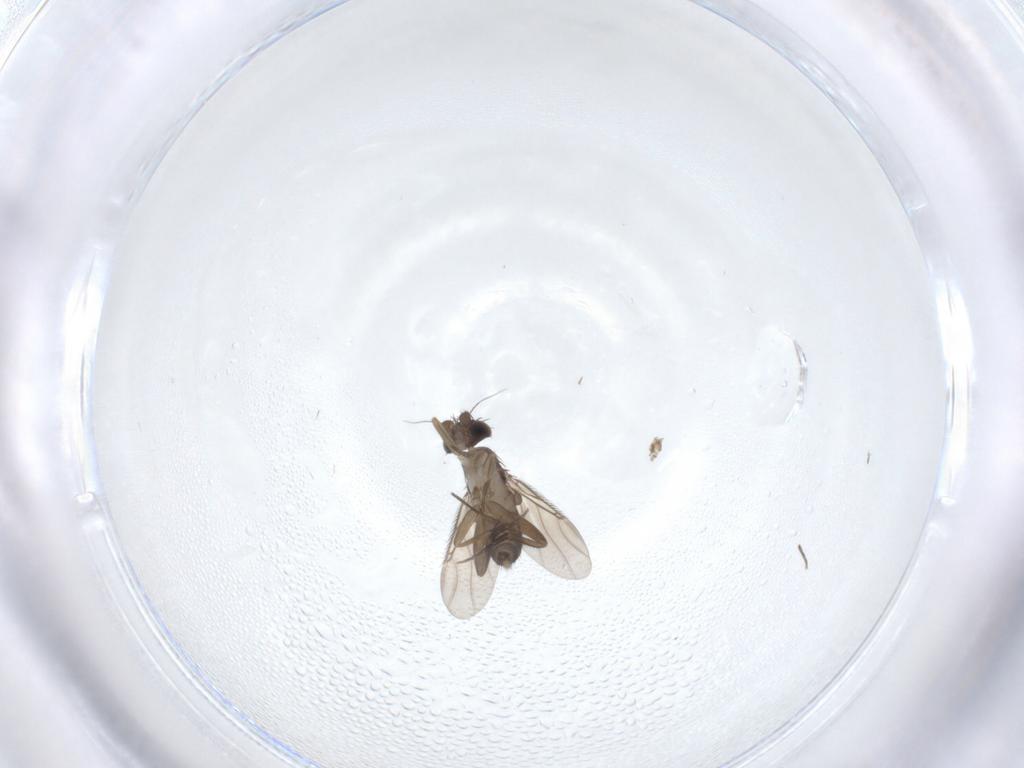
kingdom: Animalia
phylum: Arthropoda
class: Insecta
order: Diptera
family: Phoridae
